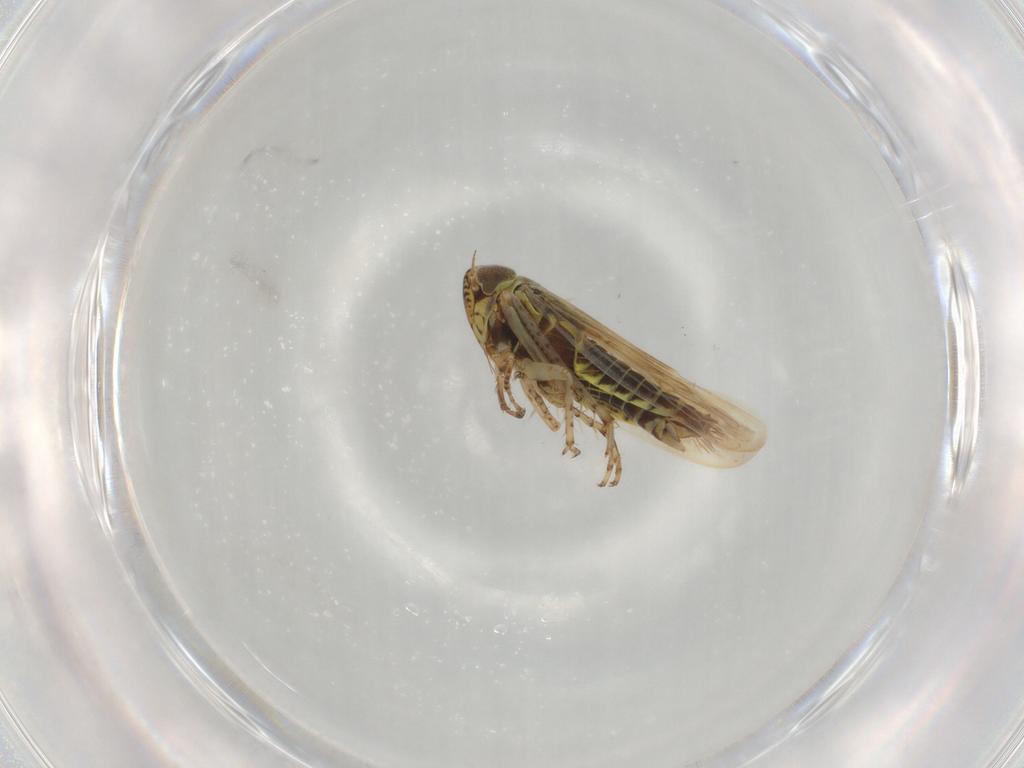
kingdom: Animalia
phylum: Arthropoda
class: Insecta
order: Hemiptera
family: Cicadellidae
